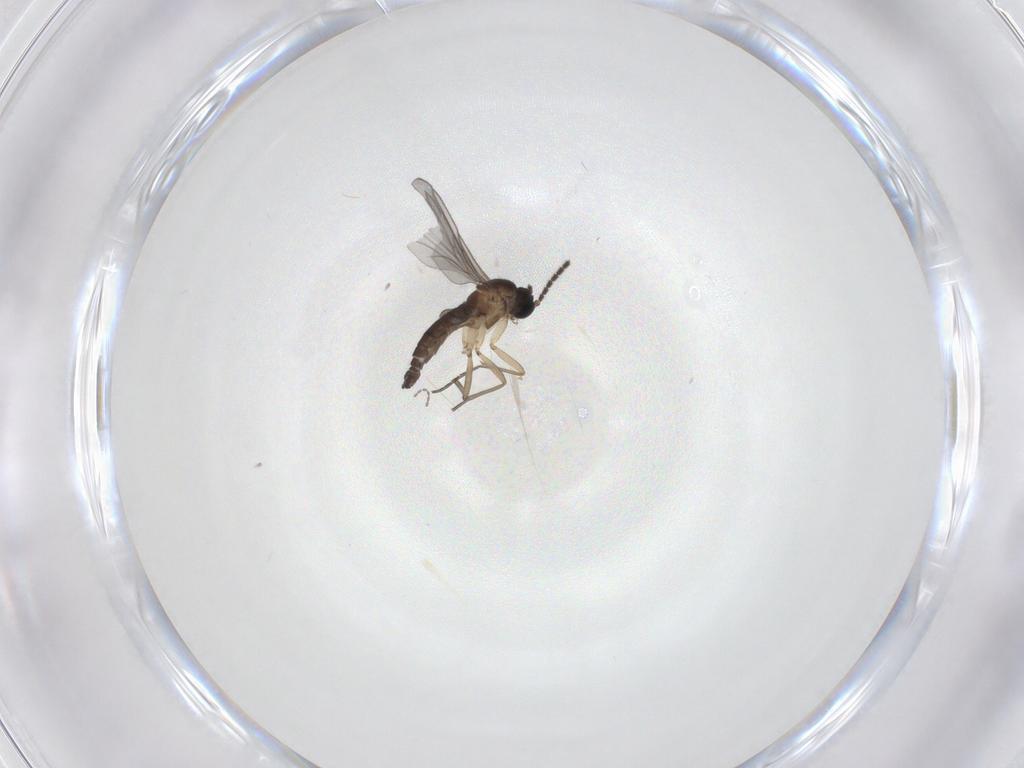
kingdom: Animalia
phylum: Arthropoda
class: Insecta
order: Diptera
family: Sciaridae
